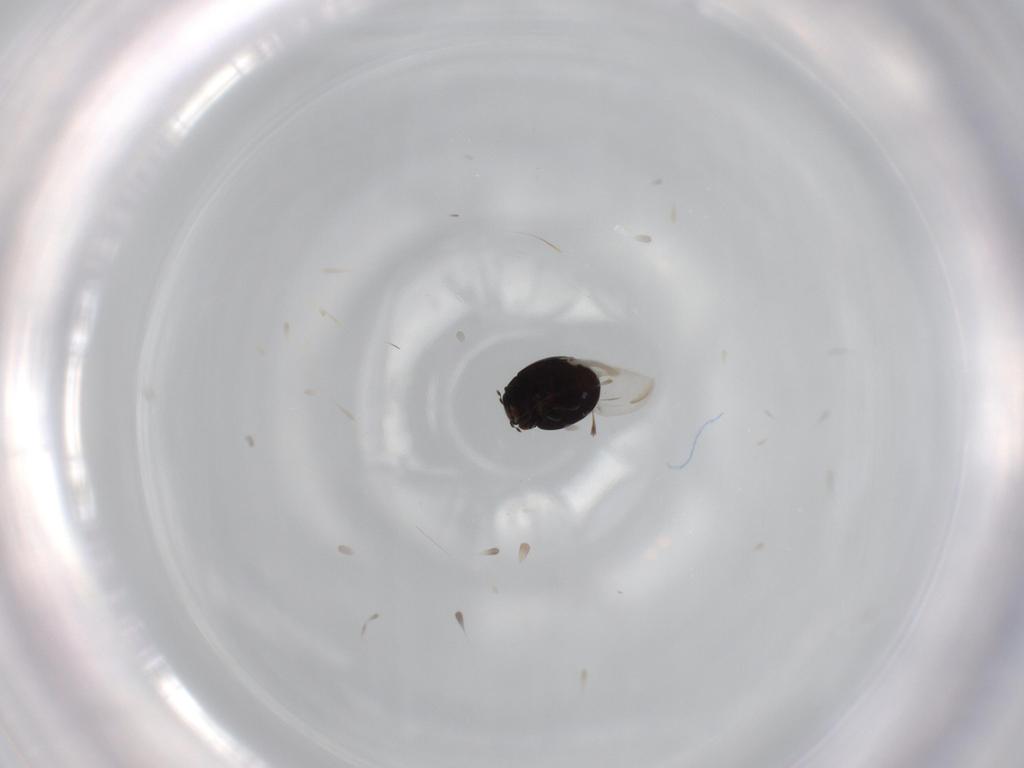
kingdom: Animalia
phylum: Arthropoda
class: Insecta
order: Coleoptera
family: Coccinellidae
